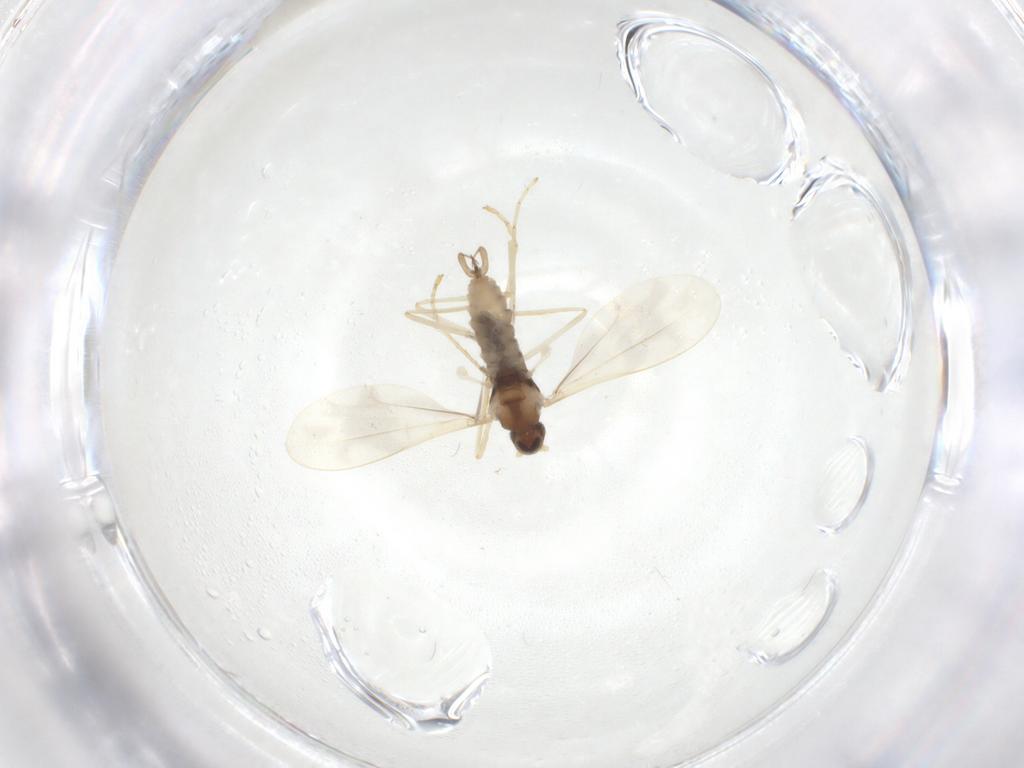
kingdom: Animalia
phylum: Arthropoda
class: Insecta
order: Diptera
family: Cecidomyiidae
